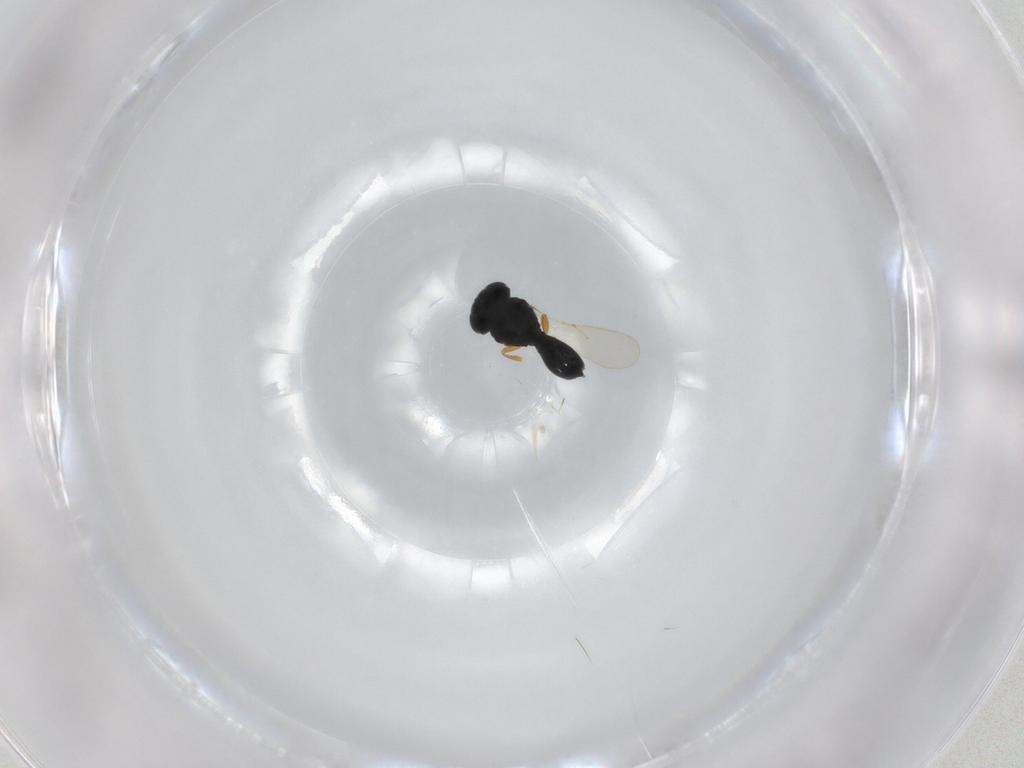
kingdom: Animalia
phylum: Arthropoda
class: Insecta
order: Hymenoptera
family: Scelionidae
